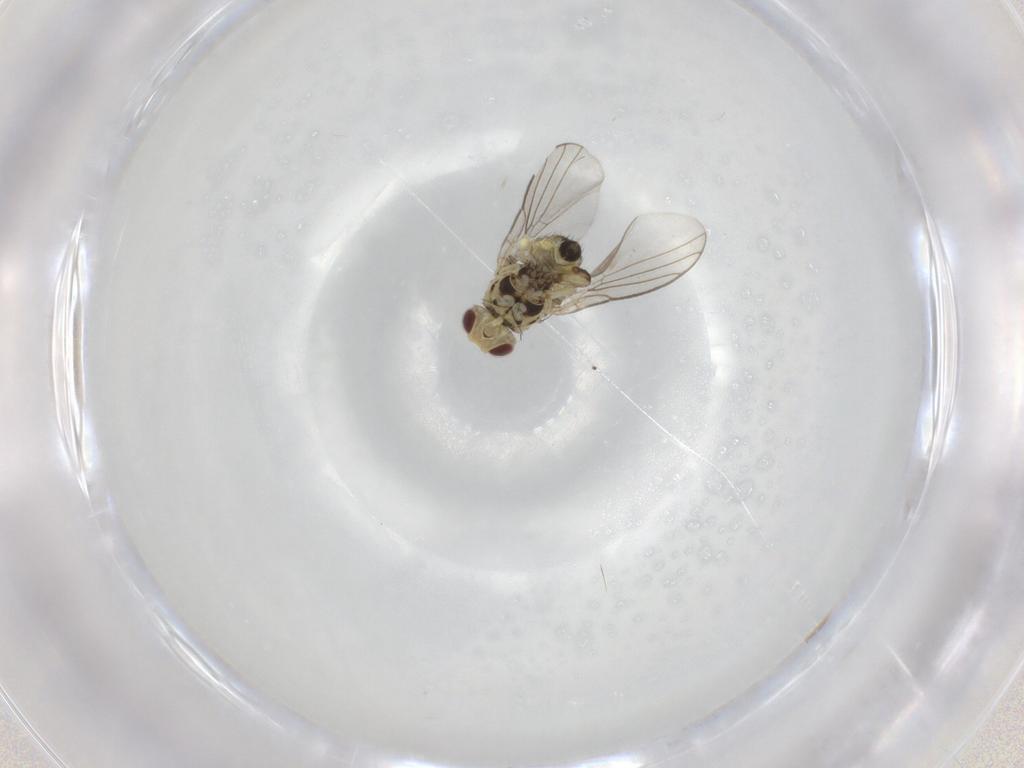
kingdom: Animalia
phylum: Arthropoda
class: Insecta
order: Diptera
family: Agromyzidae
